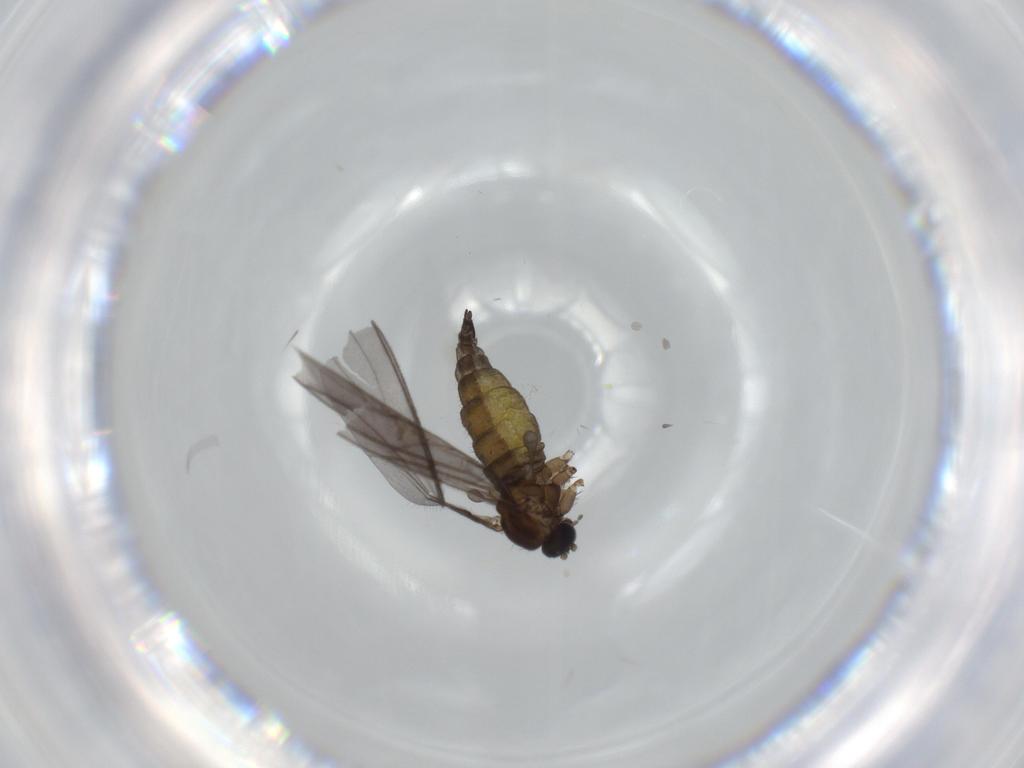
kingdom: Animalia
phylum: Arthropoda
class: Insecta
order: Diptera
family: Sciaridae
